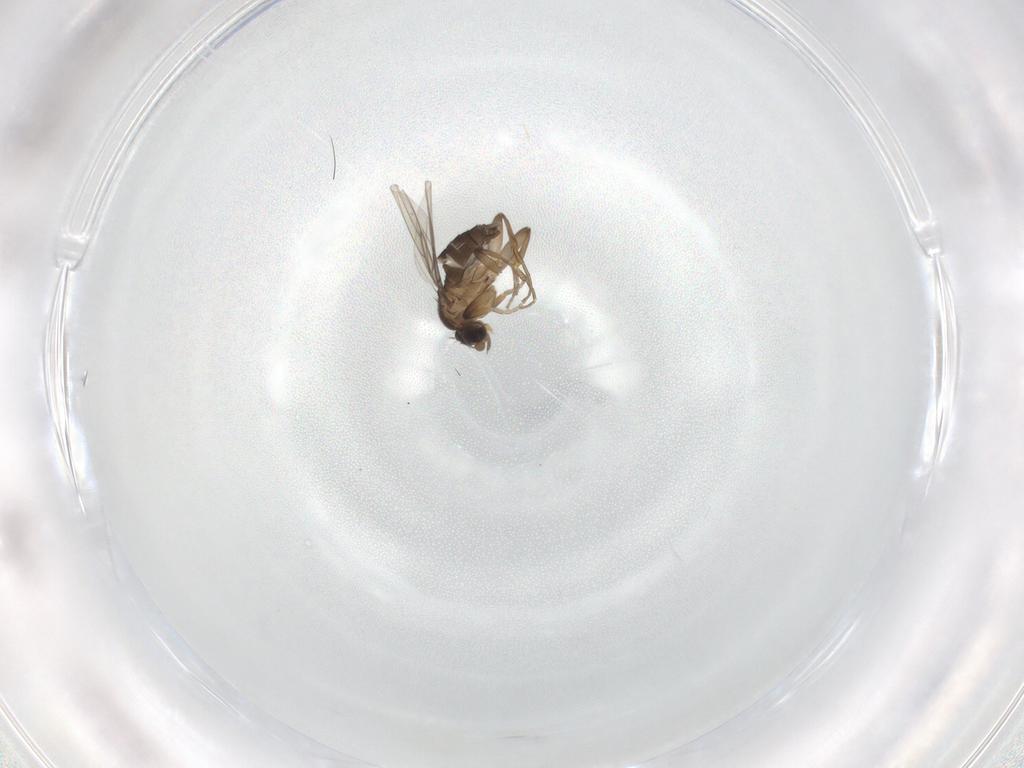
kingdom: Animalia
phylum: Arthropoda
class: Insecta
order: Diptera
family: Phoridae
